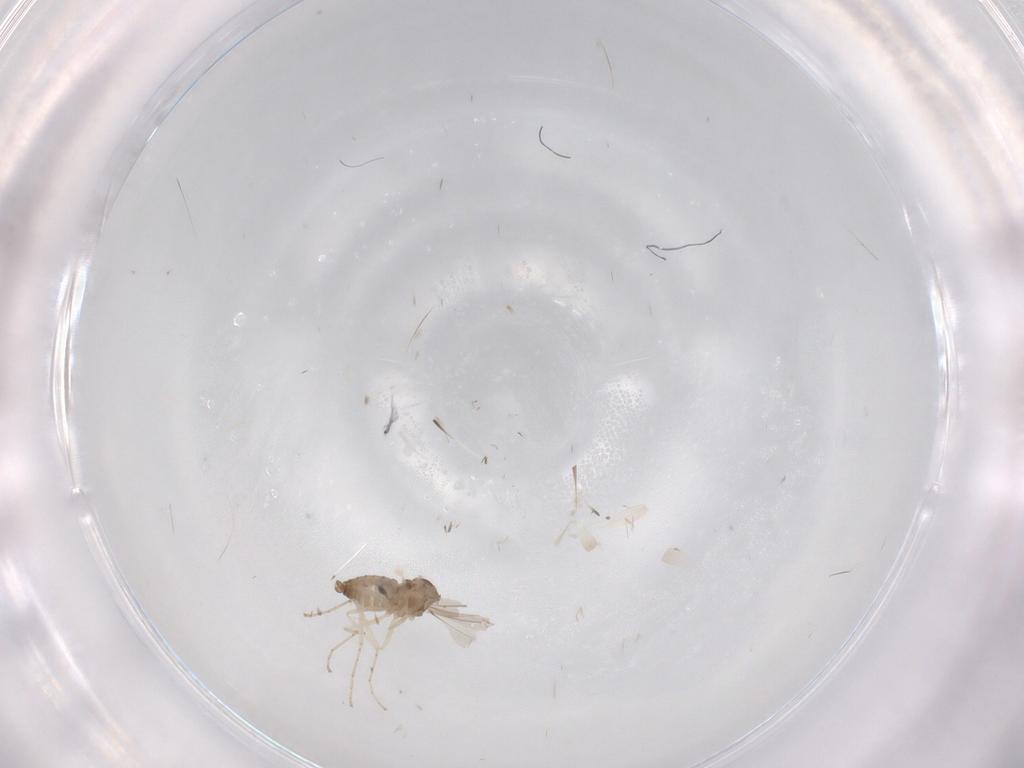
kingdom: Animalia
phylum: Arthropoda
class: Insecta
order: Diptera
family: Cecidomyiidae
